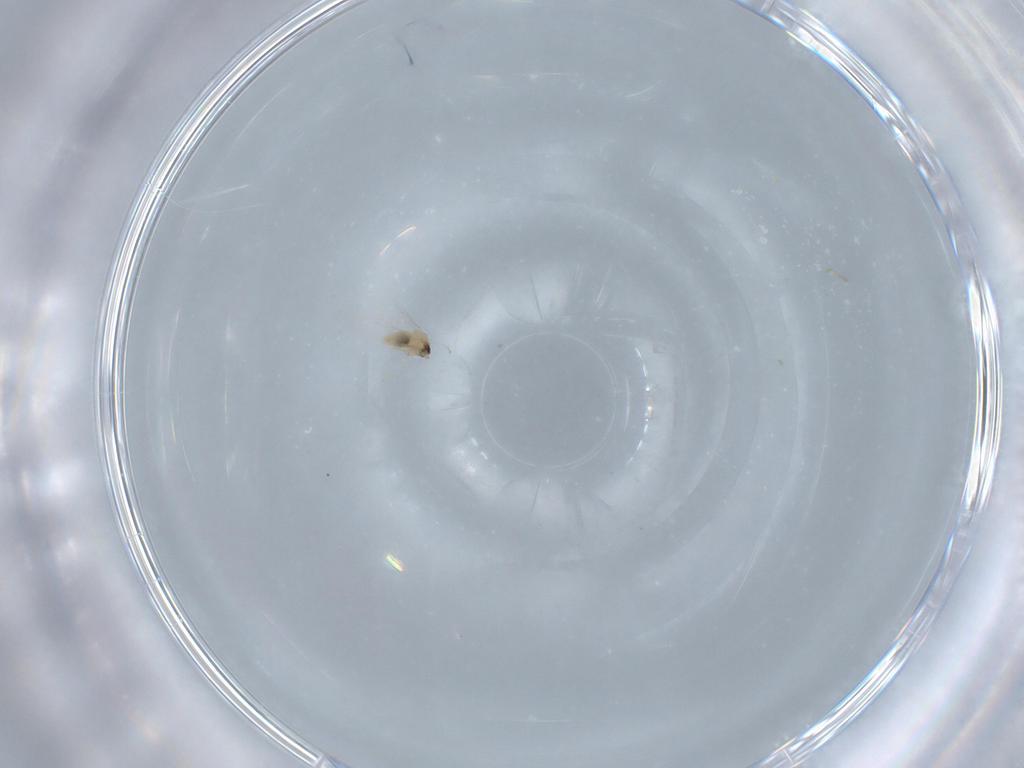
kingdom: Animalia
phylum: Arthropoda
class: Insecta
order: Diptera
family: Cecidomyiidae
